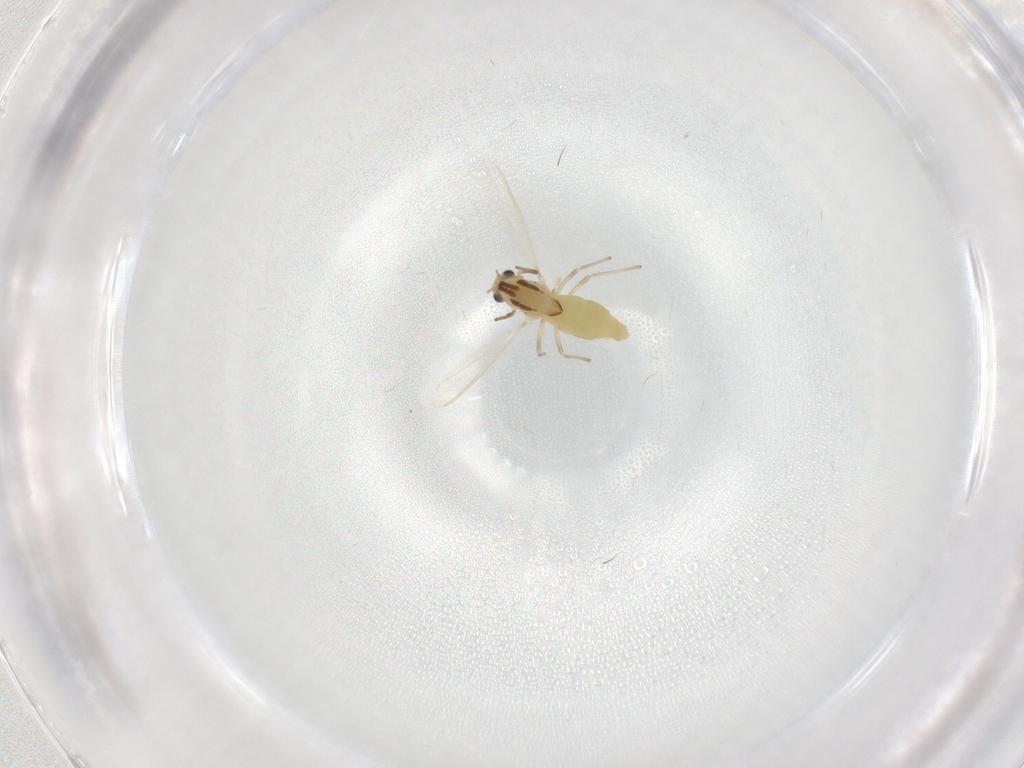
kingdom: Animalia
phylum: Arthropoda
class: Insecta
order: Diptera
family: Chironomidae
